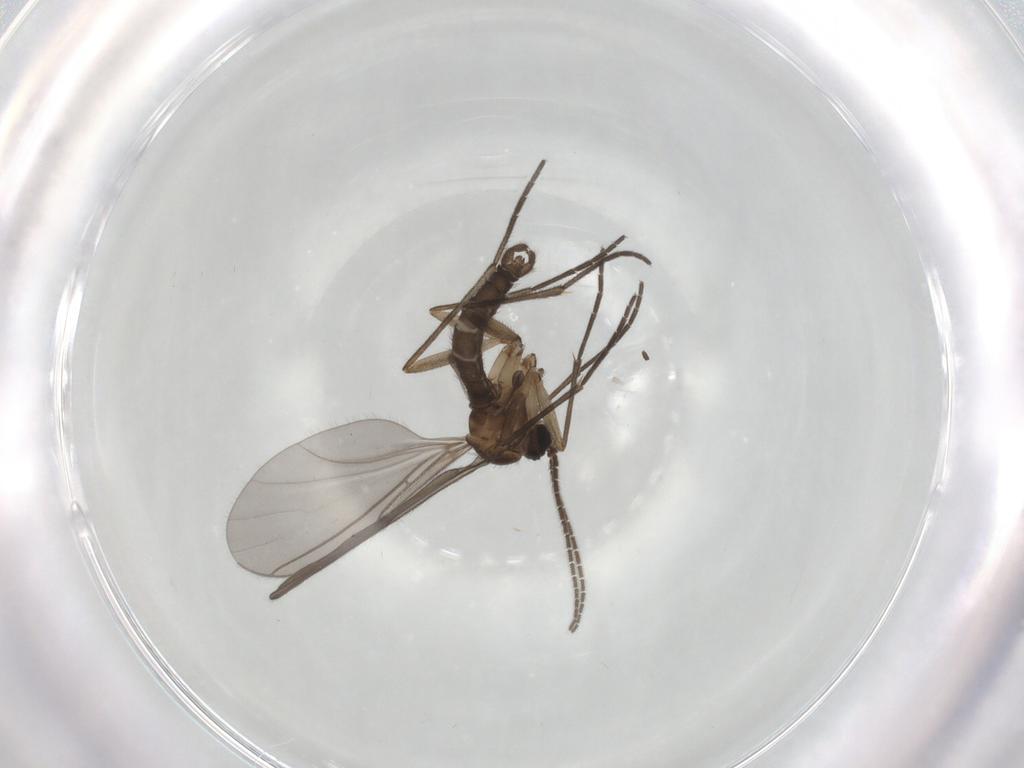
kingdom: Animalia
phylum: Arthropoda
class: Insecta
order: Diptera
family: Sciaridae
